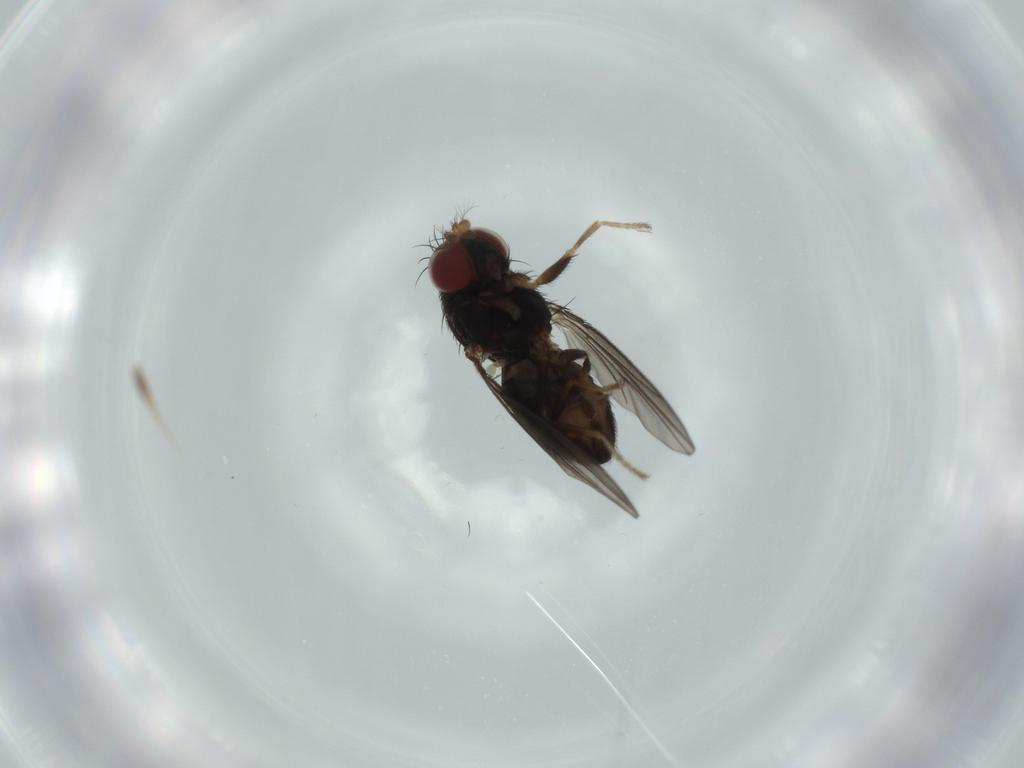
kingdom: Animalia
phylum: Arthropoda
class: Insecta
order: Diptera
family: Ephydridae
